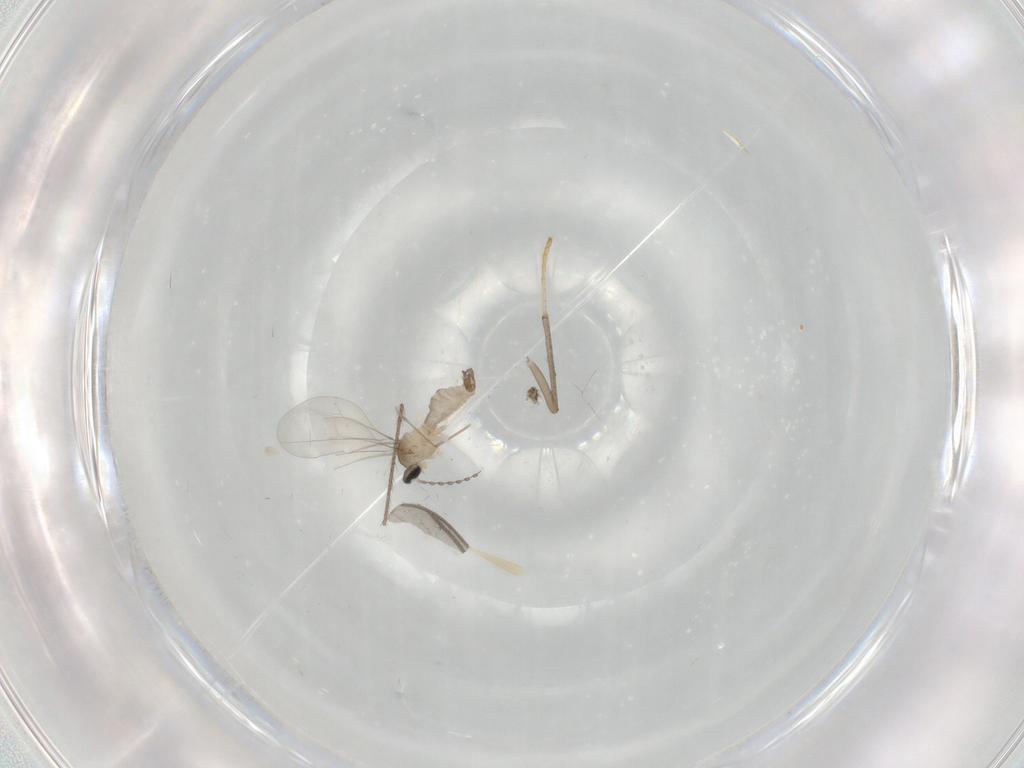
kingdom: Animalia
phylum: Arthropoda
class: Insecta
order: Diptera
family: Cecidomyiidae
